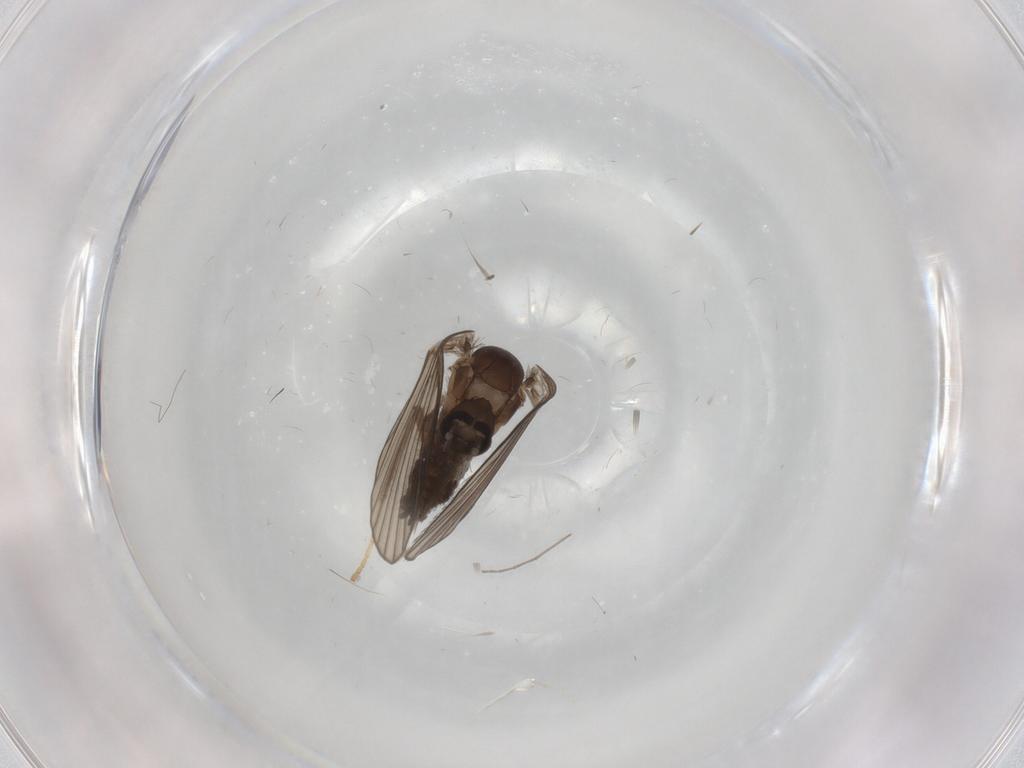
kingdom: Animalia
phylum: Arthropoda
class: Insecta
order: Diptera
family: Psychodidae
